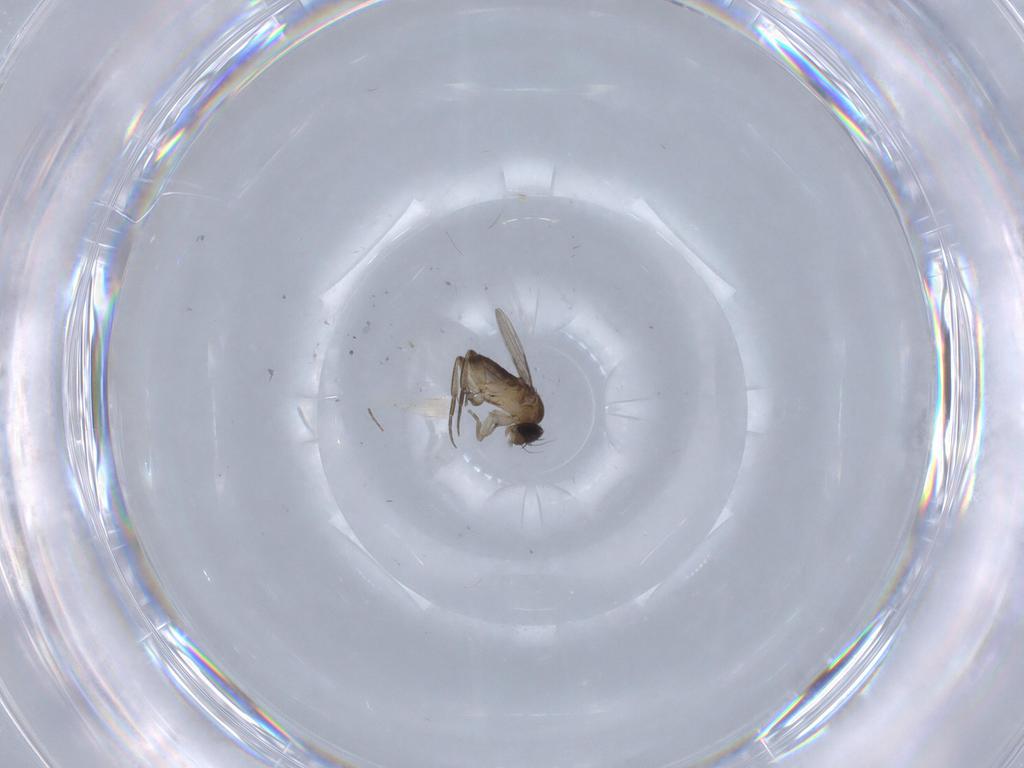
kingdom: Animalia
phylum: Arthropoda
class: Insecta
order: Diptera
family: Phoridae
